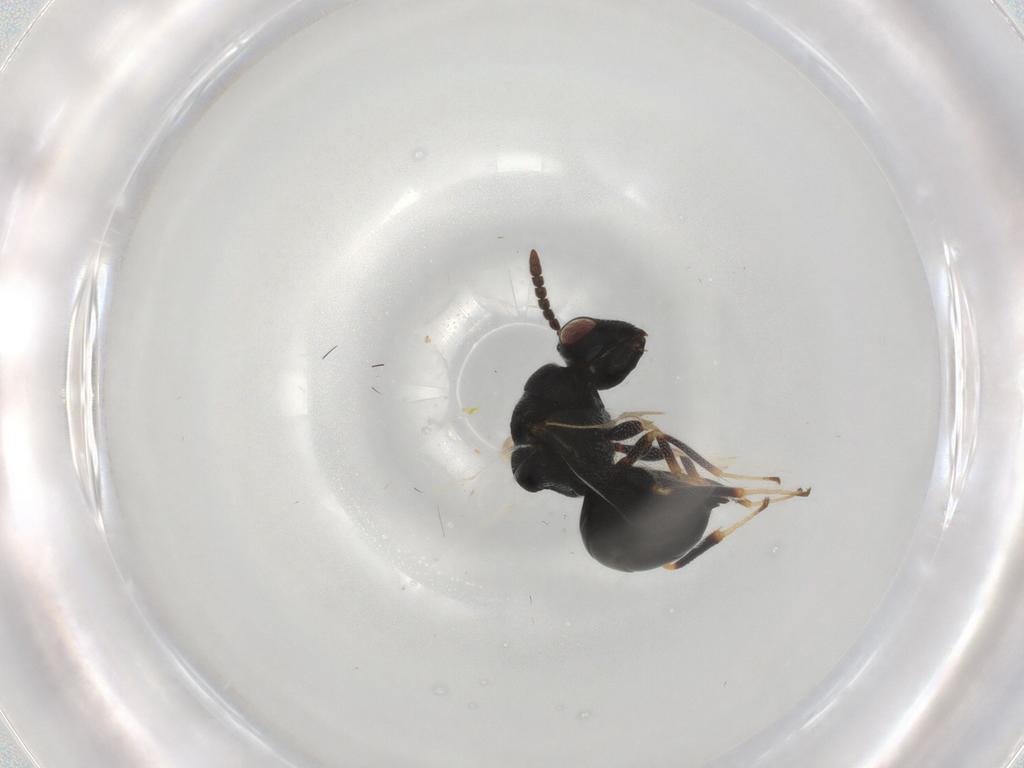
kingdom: Animalia
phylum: Arthropoda
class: Insecta
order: Hymenoptera
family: Eurytomidae
